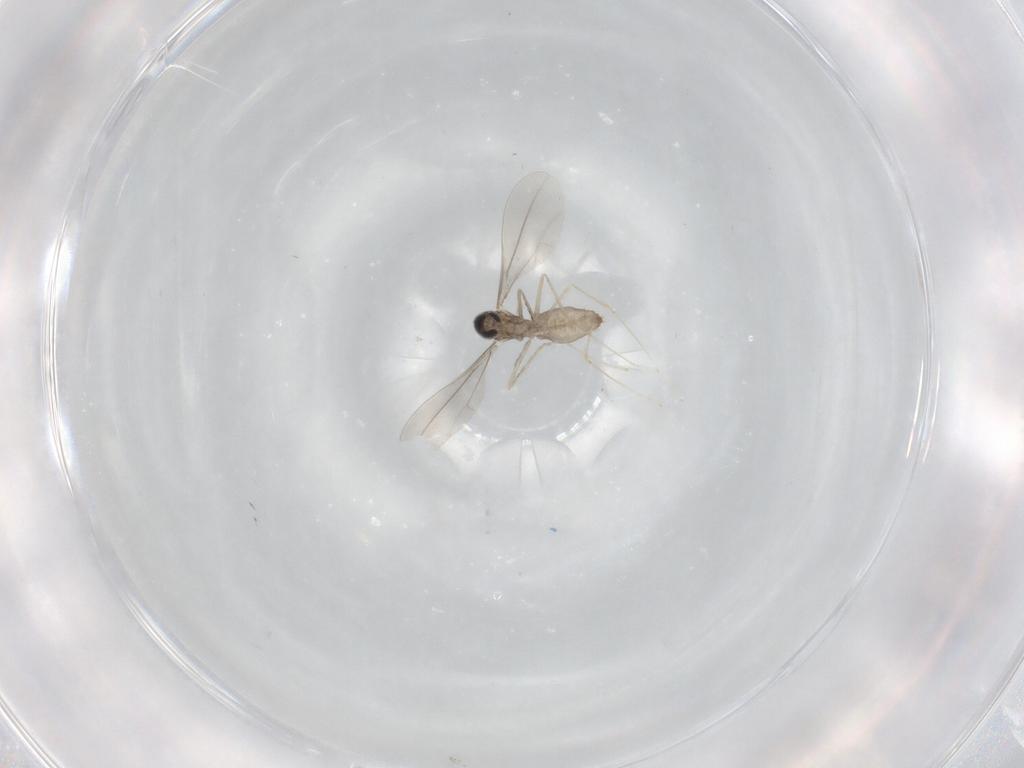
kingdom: Animalia
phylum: Arthropoda
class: Insecta
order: Diptera
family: Cecidomyiidae
